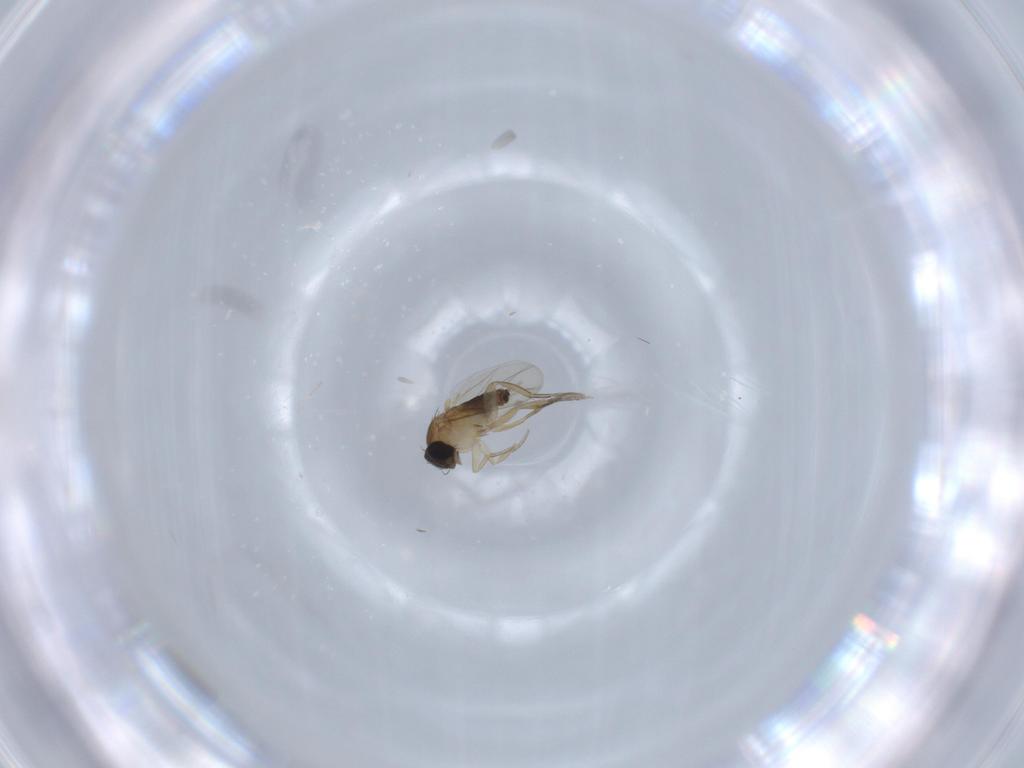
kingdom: Animalia
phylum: Arthropoda
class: Insecta
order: Diptera
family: Phoridae
